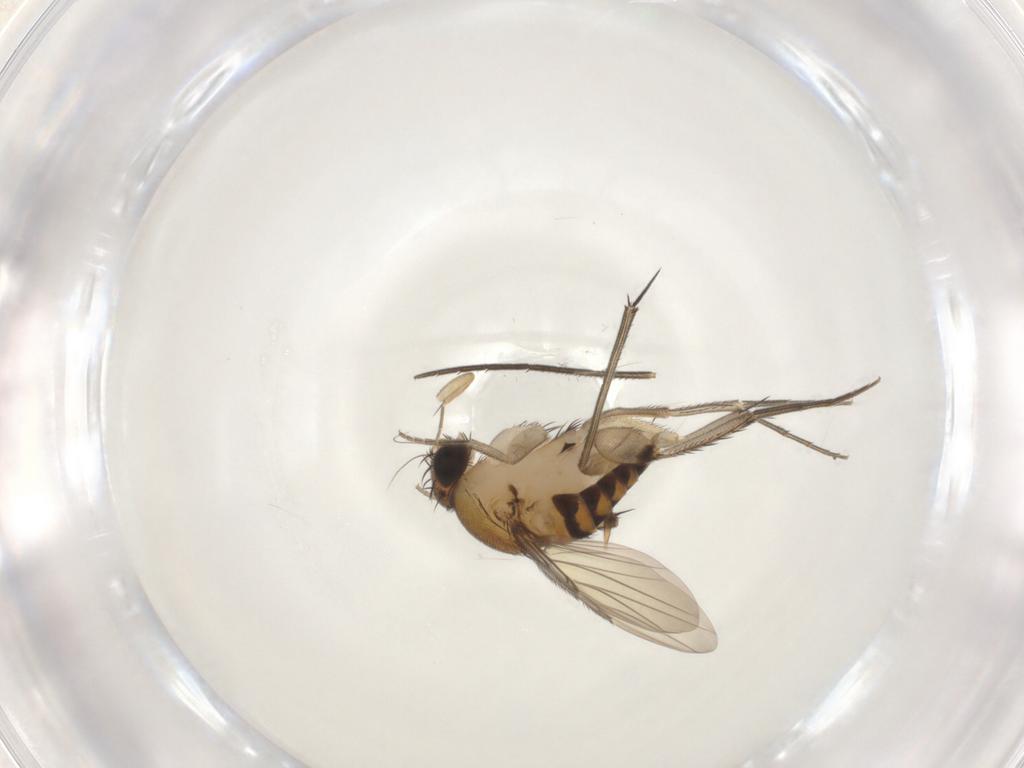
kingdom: Animalia
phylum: Arthropoda
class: Insecta
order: Diptera
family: Phoridae
